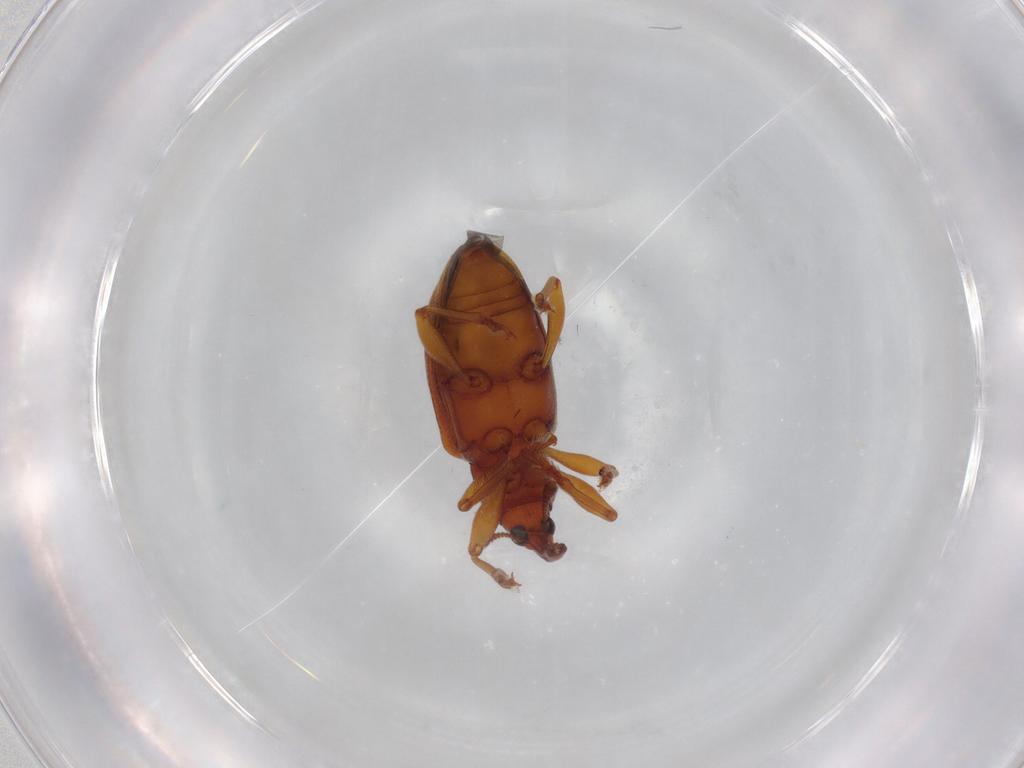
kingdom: Animalia
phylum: Arthropoda
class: Insecta
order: Coleoptera
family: Curculionidae
